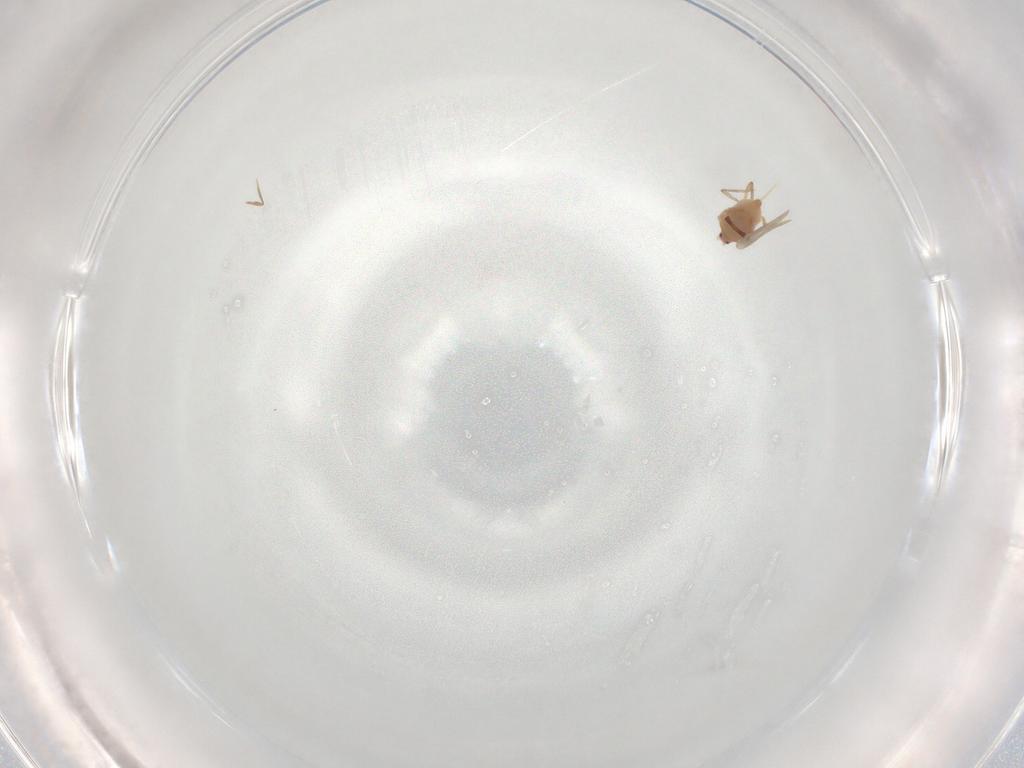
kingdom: Animalia
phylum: Arthropoda
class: Insecta
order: Hemiptera
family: Diaspididae
